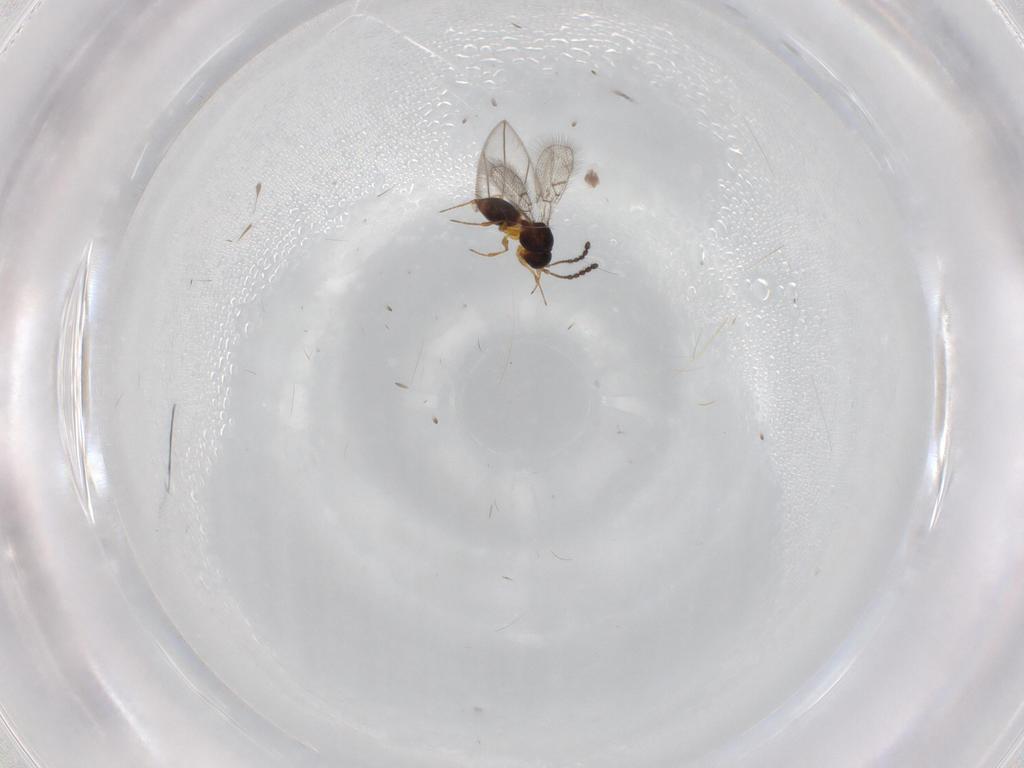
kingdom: Animalia
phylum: Arthropoda
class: Insecta
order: Hymenoptera
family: Figitidae
